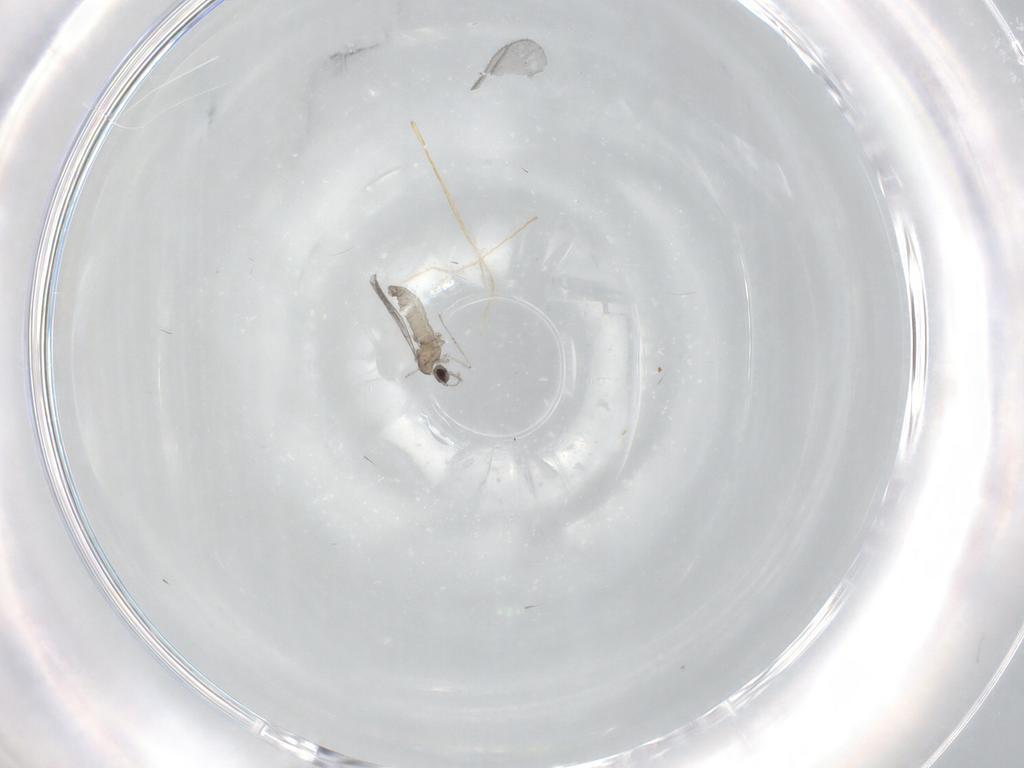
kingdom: Animalia
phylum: Arthropoda
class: Insecta
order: Diptera
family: Sciaridae
